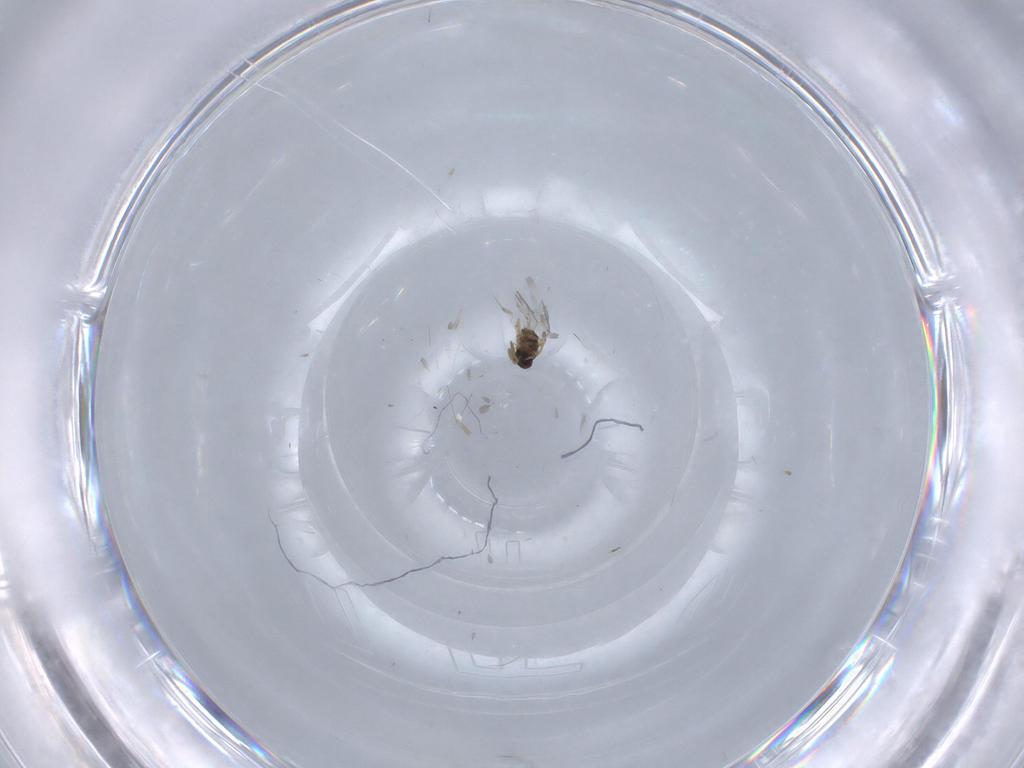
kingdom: Animalia
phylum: Arthropoda
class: Insecta
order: Hymenoptera
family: Encyrtidae
